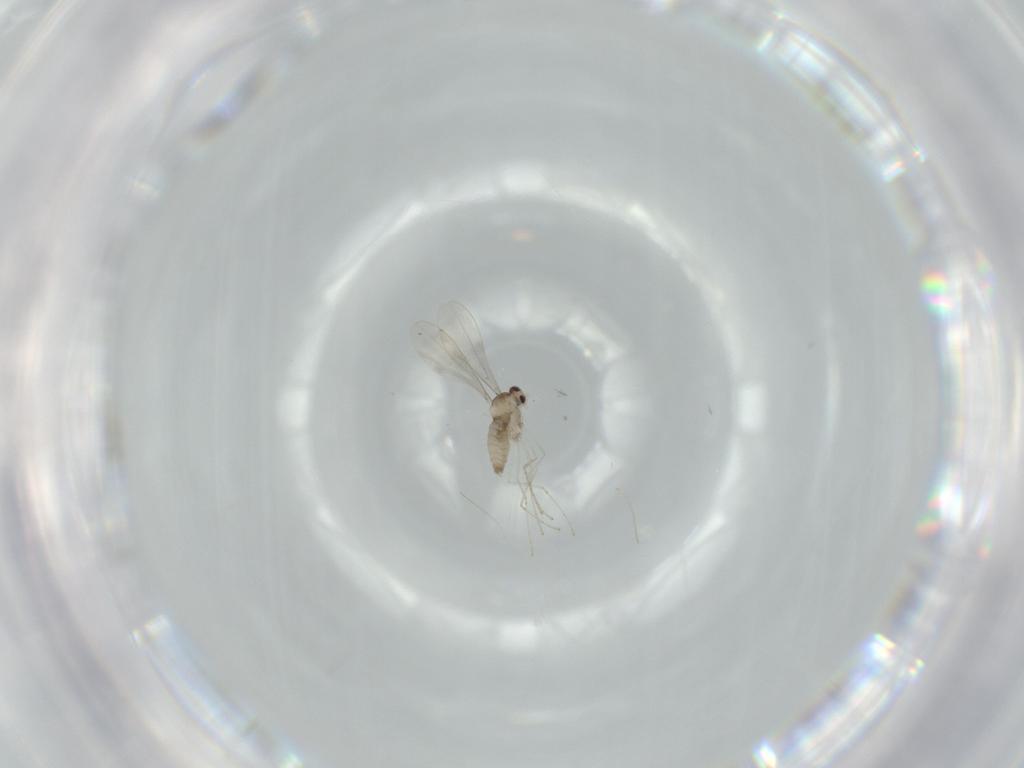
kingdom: Animalia
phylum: Arthropoda
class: Insecta
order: Diptera
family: Cecidomyiidae
